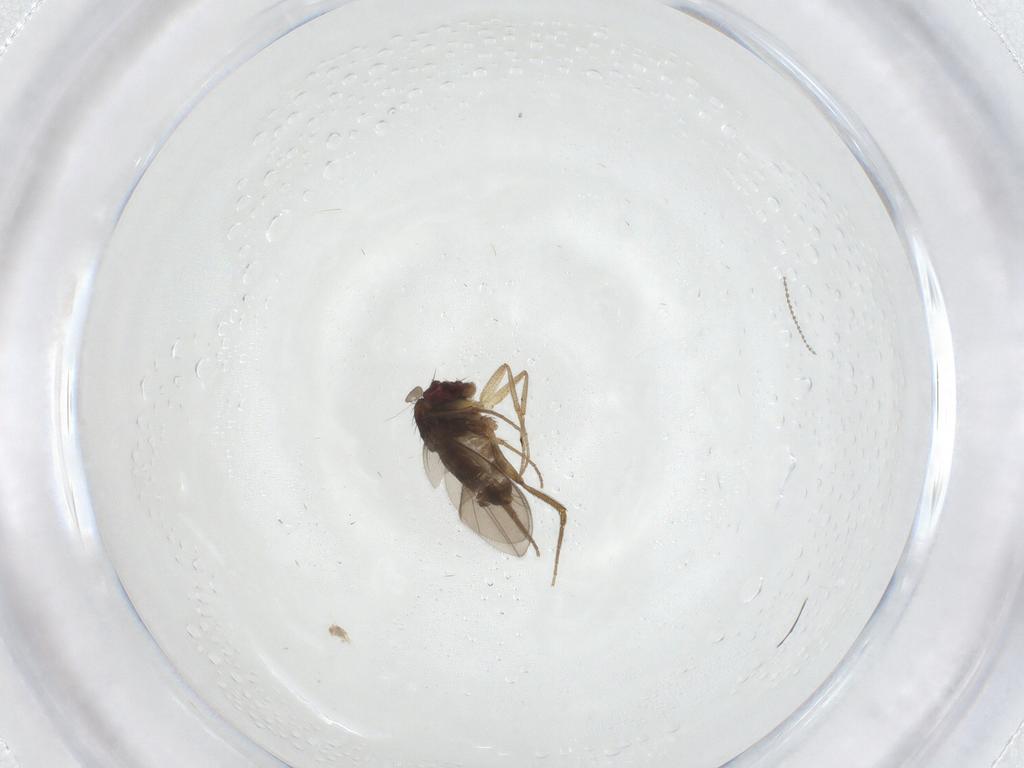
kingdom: Animalia
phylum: Arthropoda
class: Insecta
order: Diptera
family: Dolichopodidae
